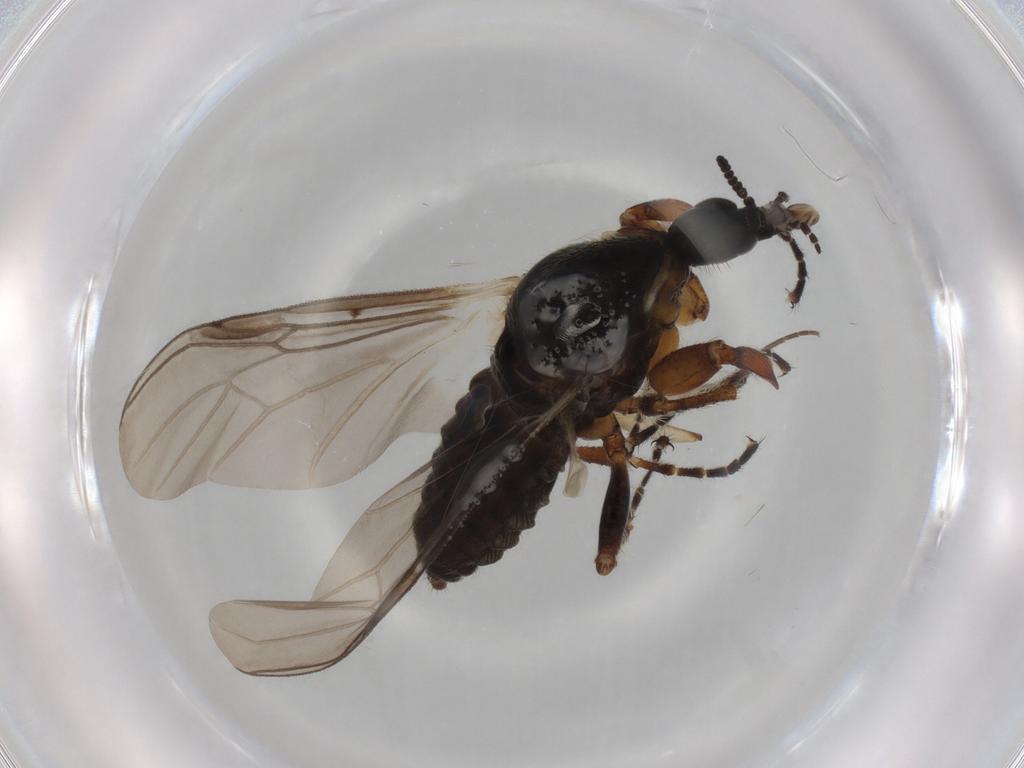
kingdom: Animalia
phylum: Arthropoda
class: Insecta
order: Diptera
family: Bibionidae
